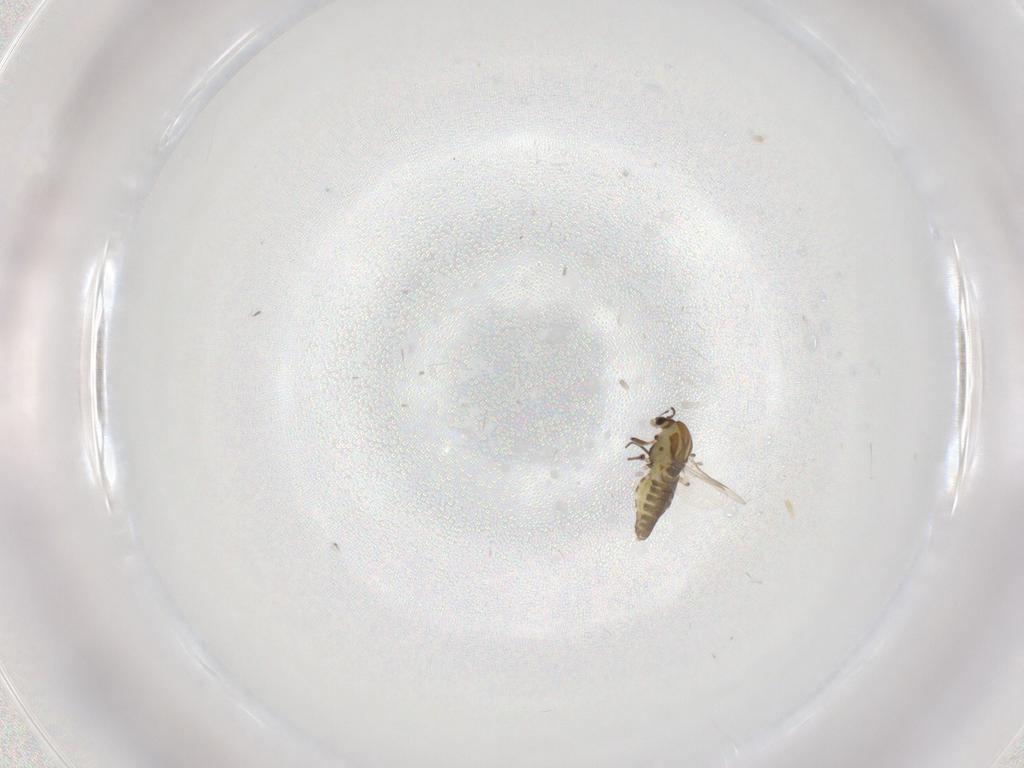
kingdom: Animalia
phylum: Arthropoda
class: Insecta
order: Diptera
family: Chironomidae
